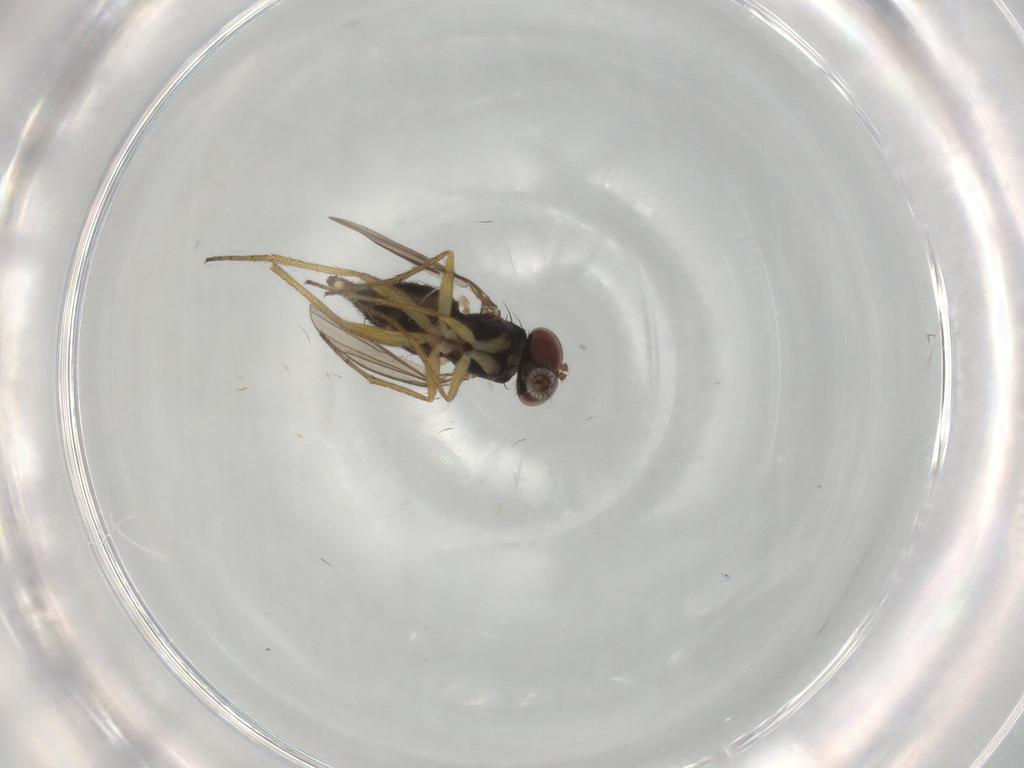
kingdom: Animalia
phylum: Arthropoda
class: Insecta
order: Diptera
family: Dolichopodidae
